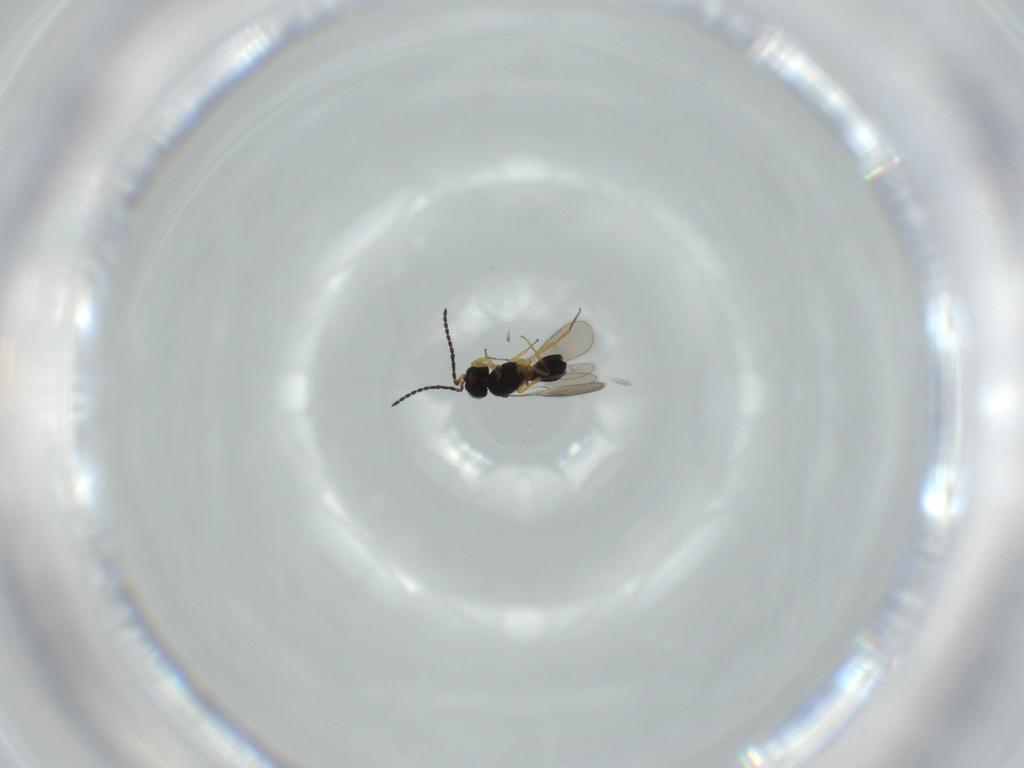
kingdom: Animalia
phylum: Arthropoda
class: Insecta
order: Hymenoptera
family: Scelionidae
